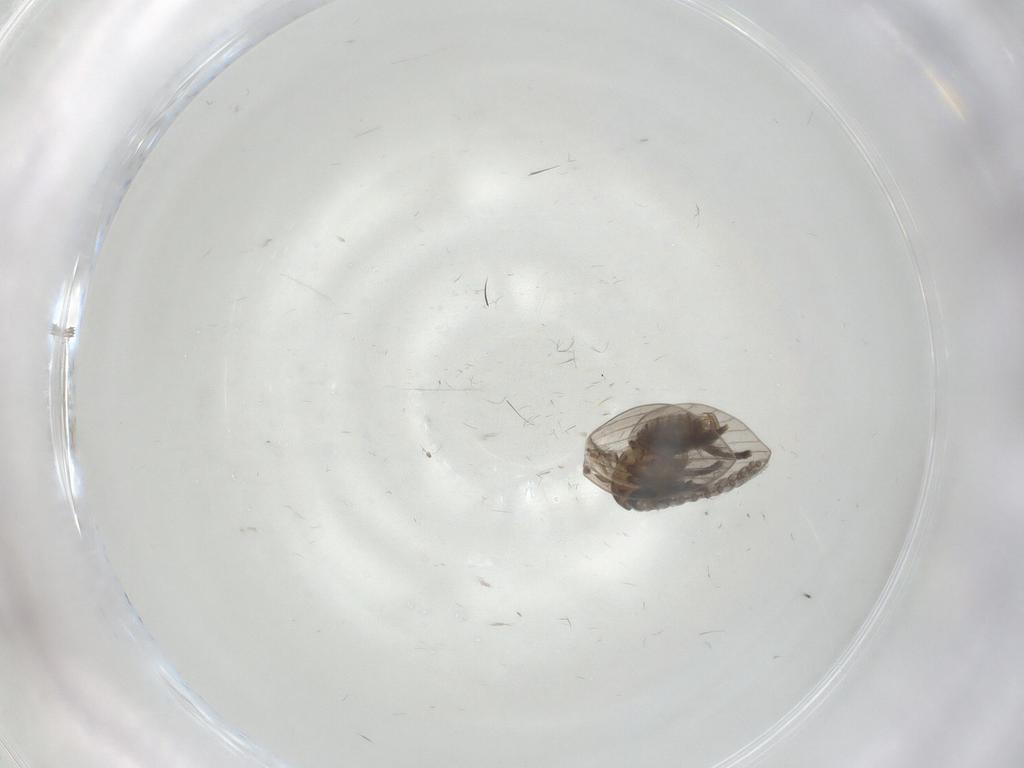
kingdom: Animalia
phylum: Arthropoda
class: Insecta
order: Diptera
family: Psychodidae
